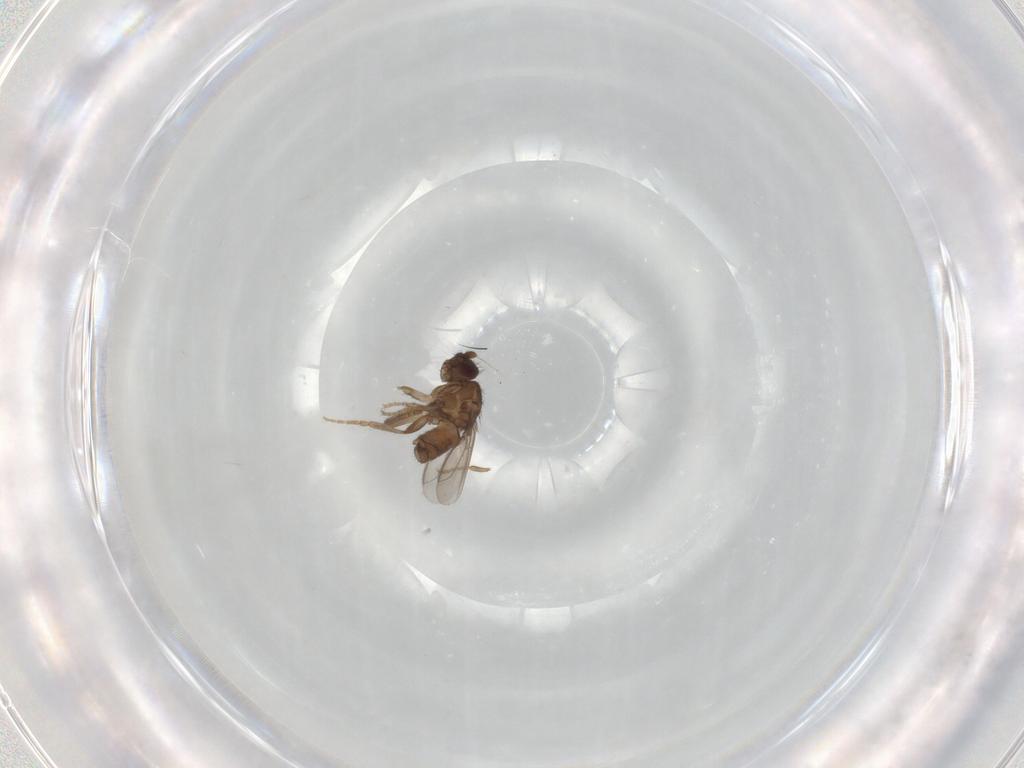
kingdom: Animalia
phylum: Arthropoda
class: Insecta
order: Diptera
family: Sphaeroceridae
